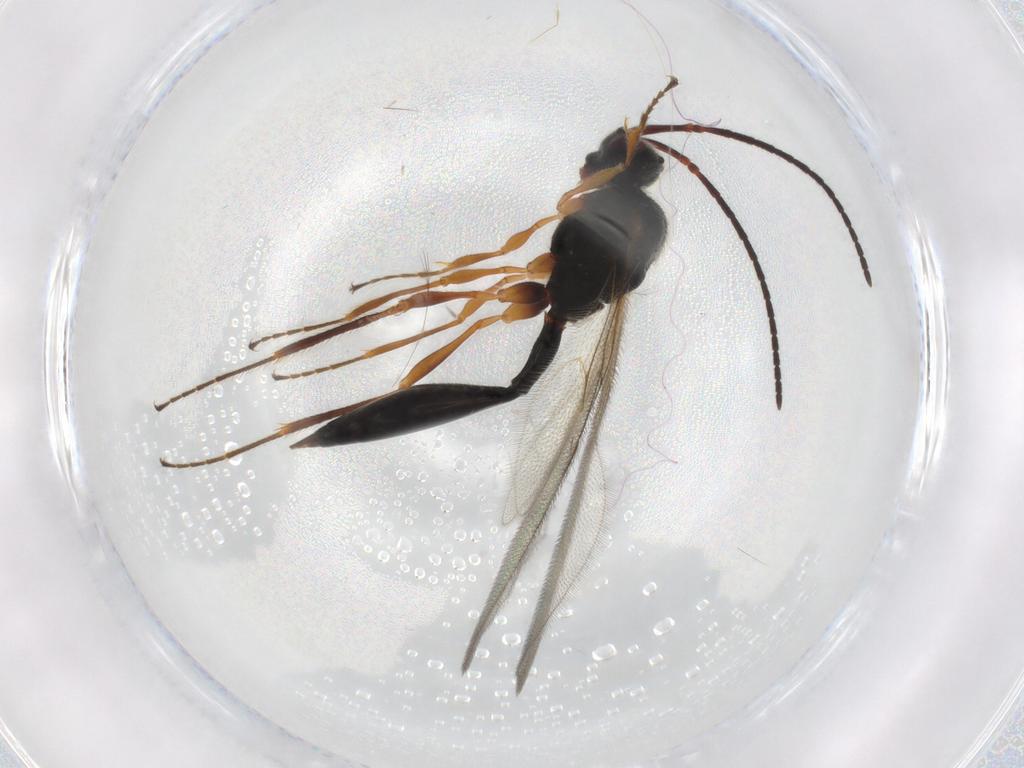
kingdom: Animalia
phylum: Arthropoda
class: Insecta
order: Hymenoptera
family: Diapriidae
